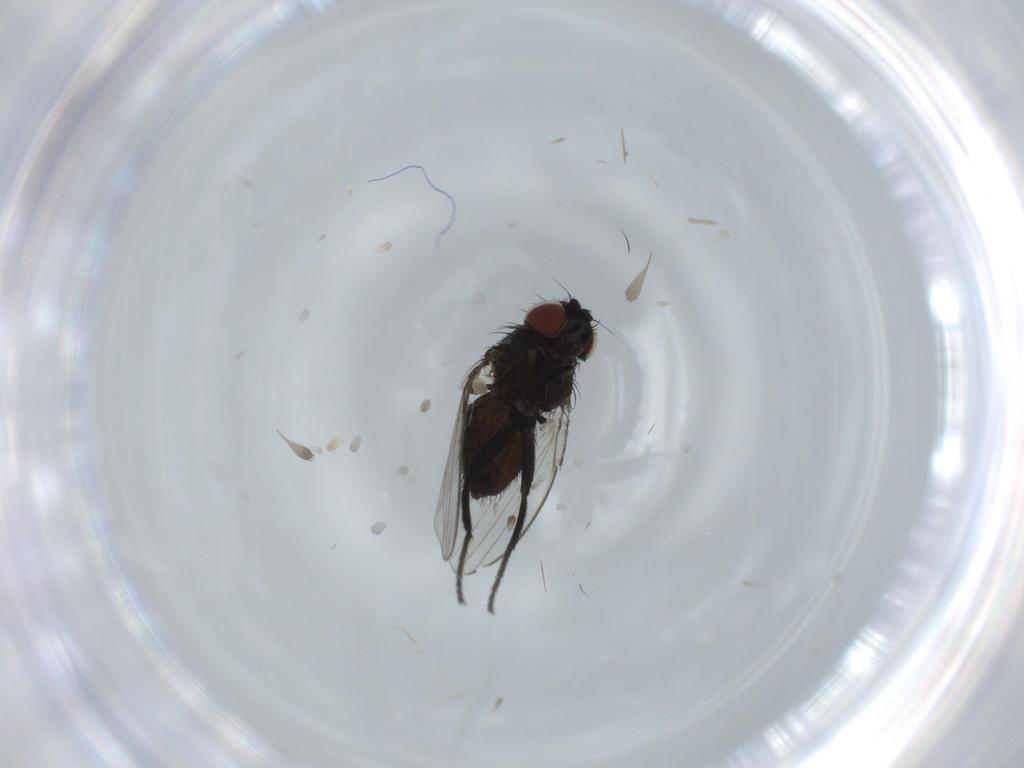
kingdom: Animalia
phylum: Arthropoda
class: Insecta
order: Diptera
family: Milichiidae
